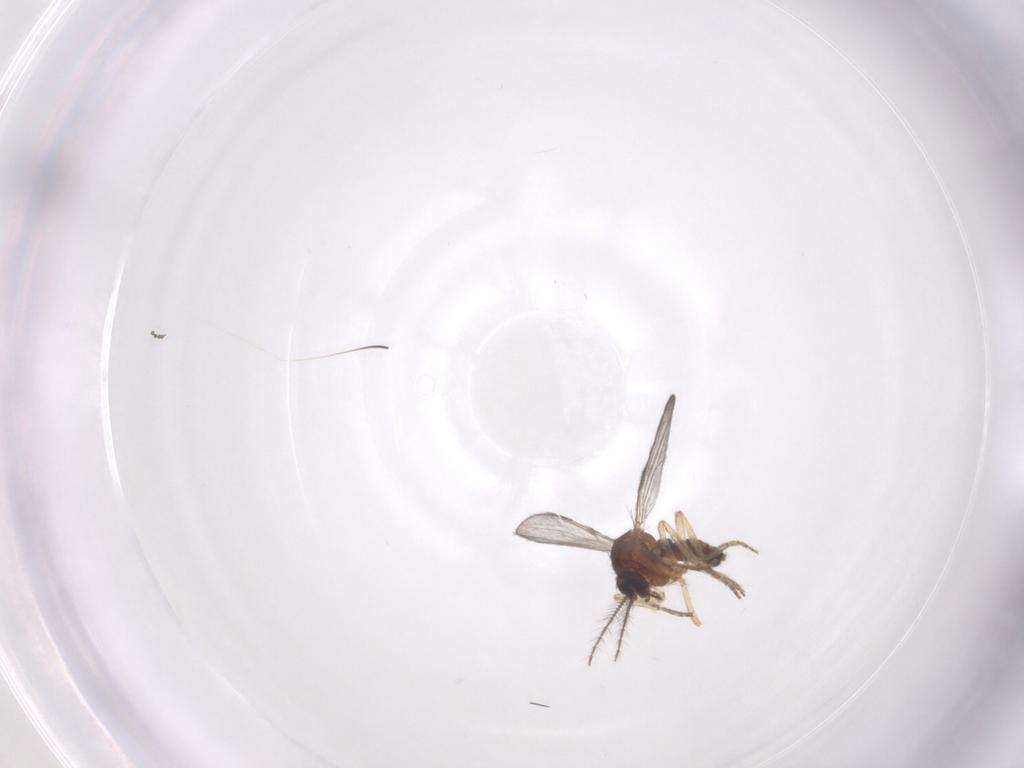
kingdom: Animalia
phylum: Arthropoda
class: Insecta
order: Diptera
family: Ceratopogonidae
